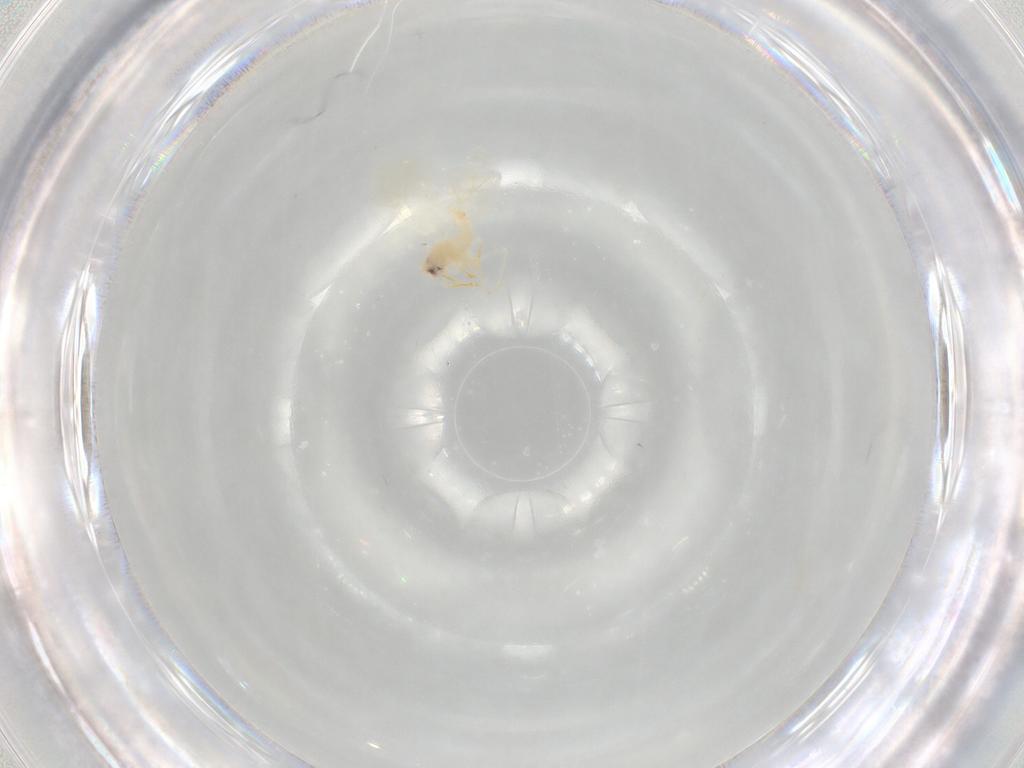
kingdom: Animalia
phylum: Arthropoda
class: Insecta
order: Hemiptera
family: Aleyrodidae
